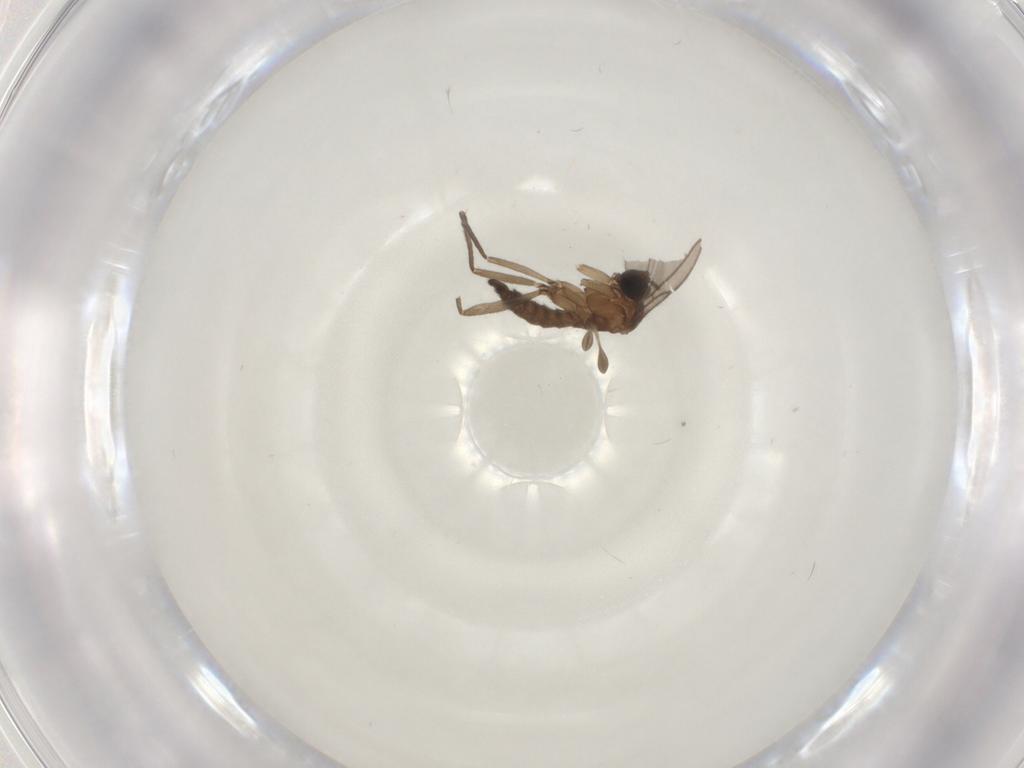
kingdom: Animalia
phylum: Arthropoda
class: Insecta
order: Diptera
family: Sciaridae
